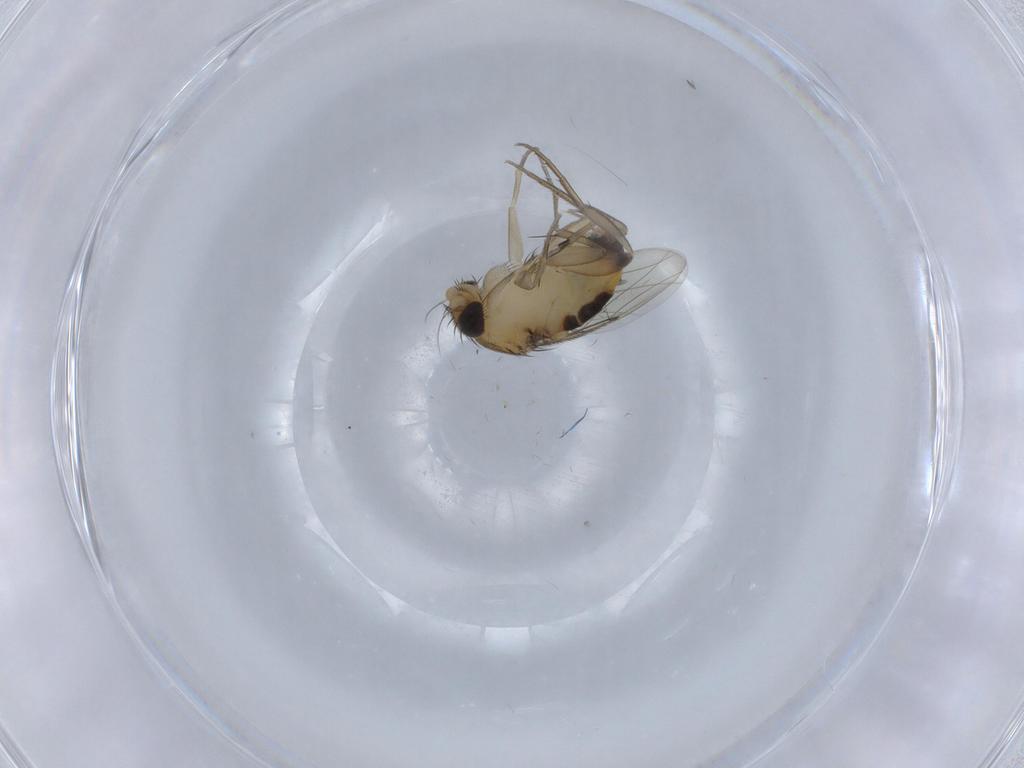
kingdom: Animalia
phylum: Arthropoda
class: Insecta
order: Diptera
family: Phoridae
